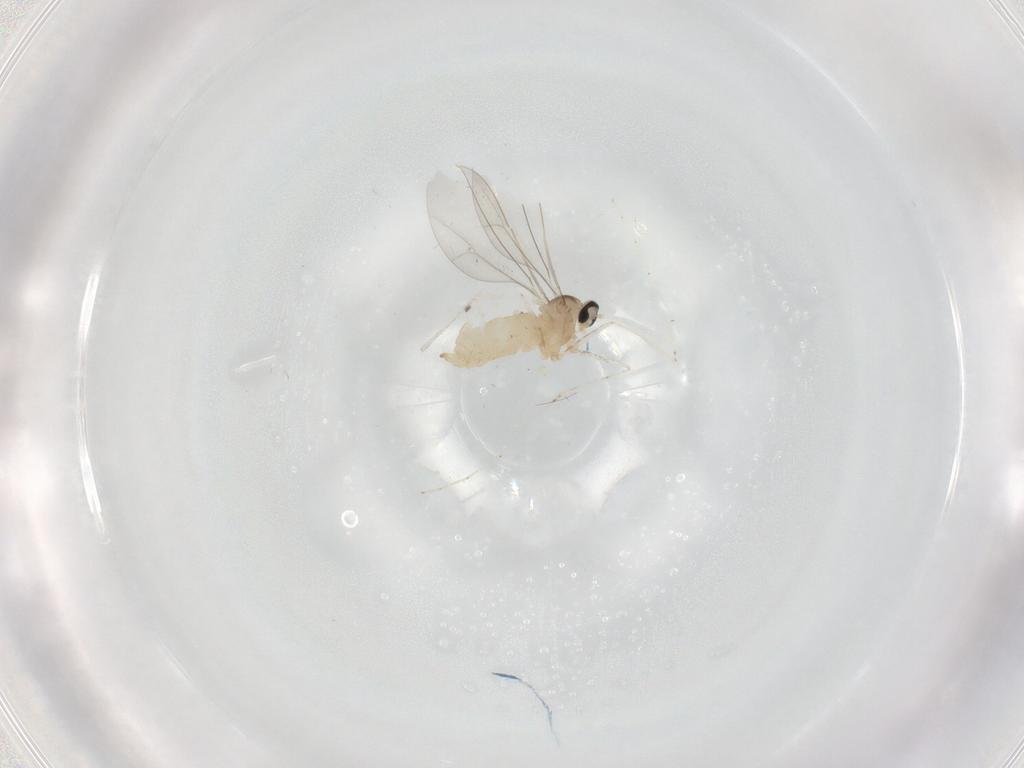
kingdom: Animalia
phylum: Arthropoda
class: Insecta
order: Diptera
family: Cecidomyiidae
